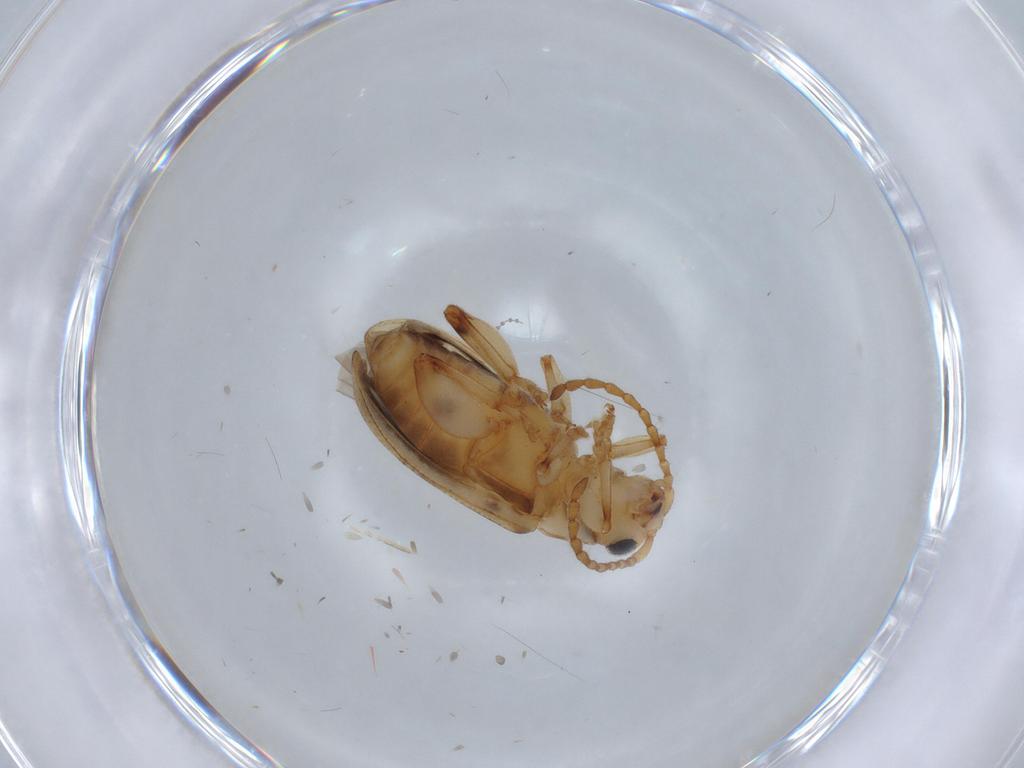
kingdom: Animalia
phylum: Arthropoda
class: Insecta
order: Coleoptera
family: Chrysomelidae
